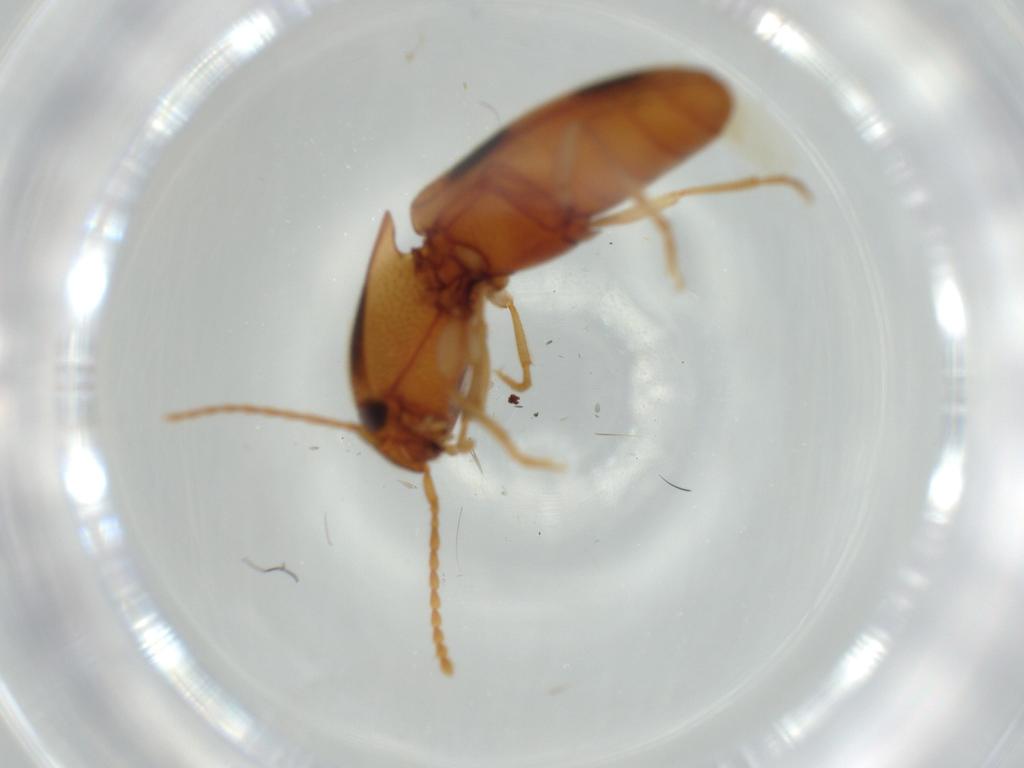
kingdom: Animalia
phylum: Arthropoda
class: Insecta
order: Coleoptera
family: Elateridae
